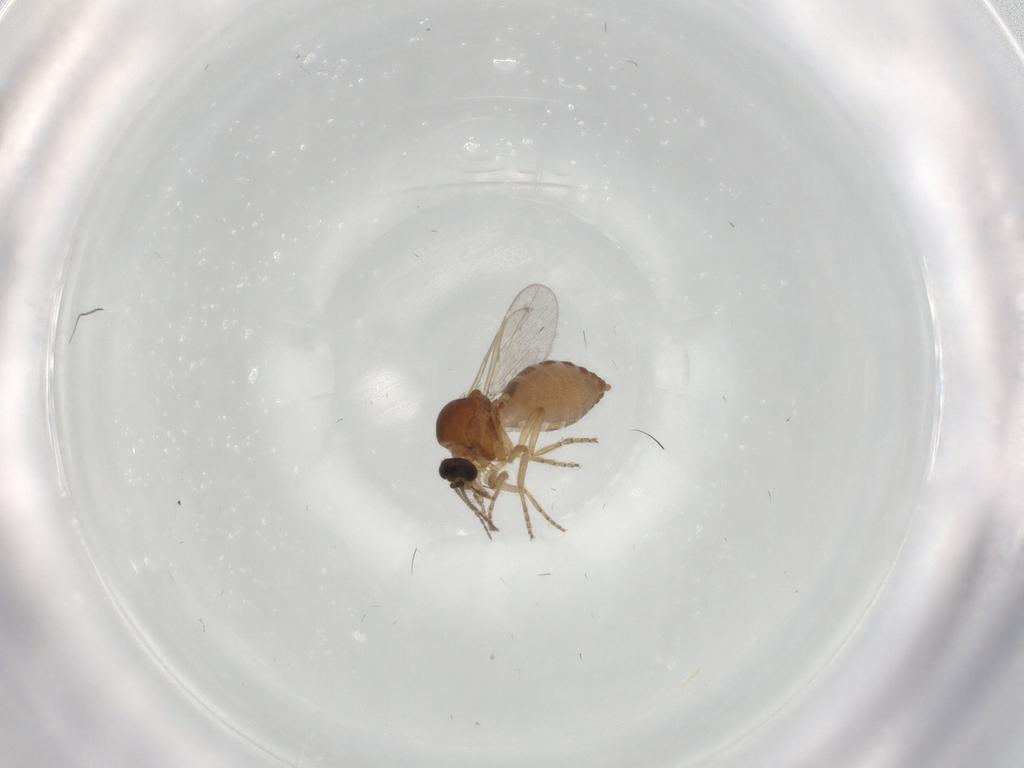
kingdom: Animalia
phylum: Arthropoda
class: Insecta
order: Diptera
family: Ceratopogonidae
